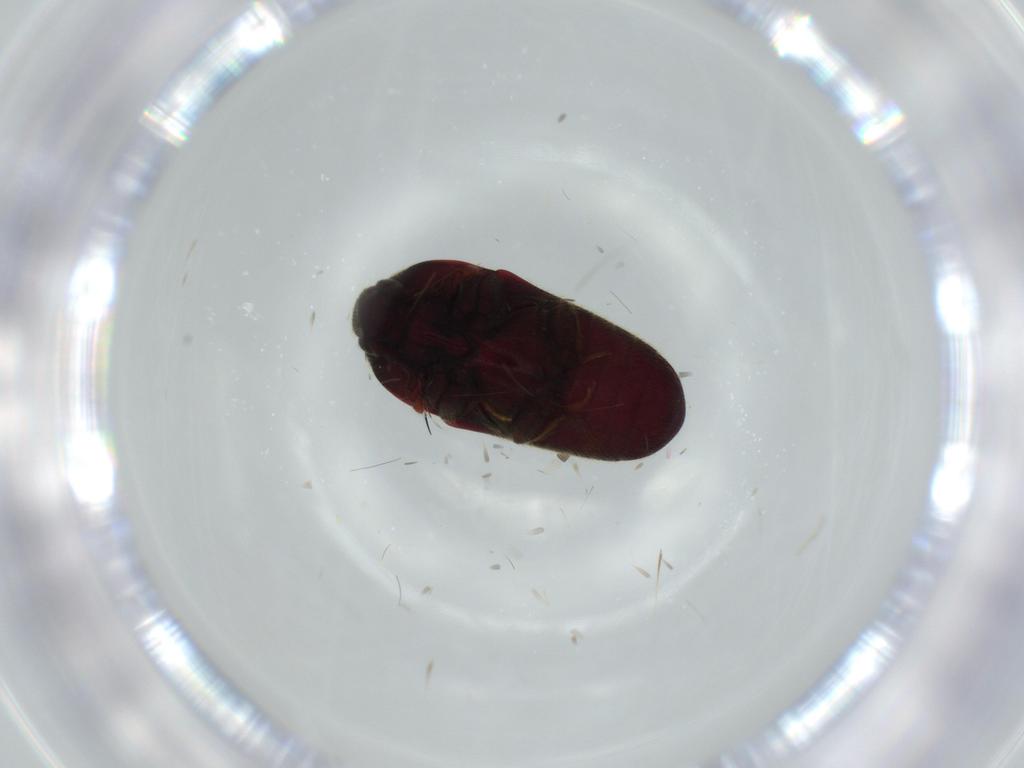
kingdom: Animalia
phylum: Arthropoda
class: Insecta
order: Coleoptera
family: Throscidae
